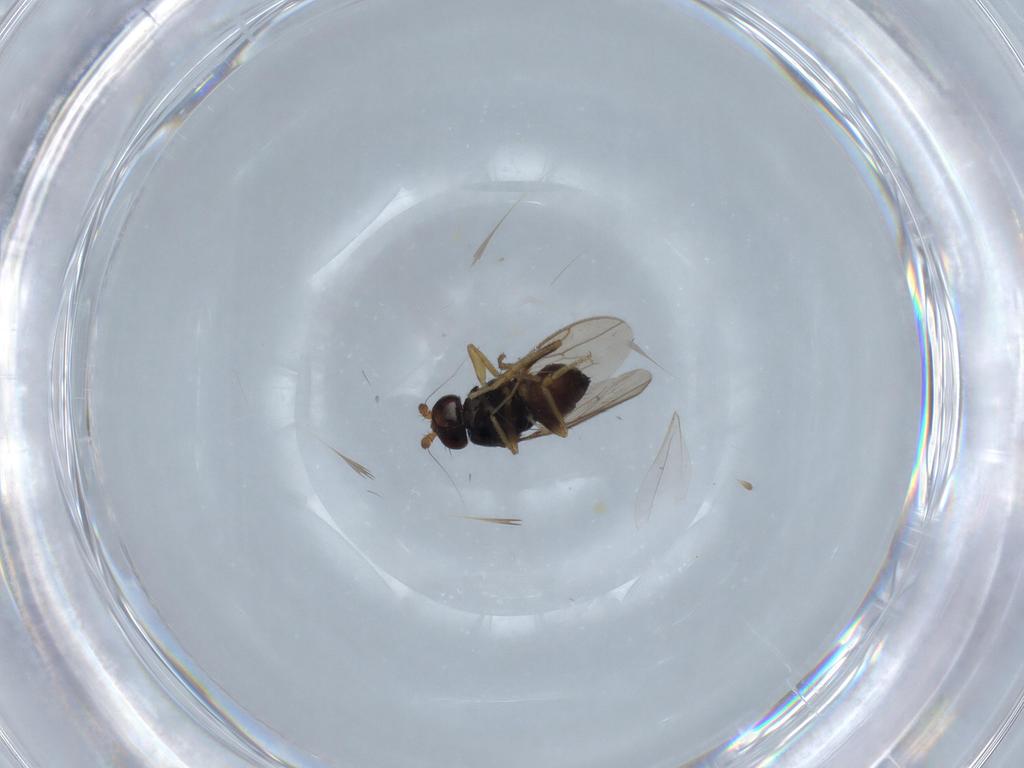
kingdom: Animalia
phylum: Arthropoda
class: Insecta
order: Diptera
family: Sphaeroceridae
